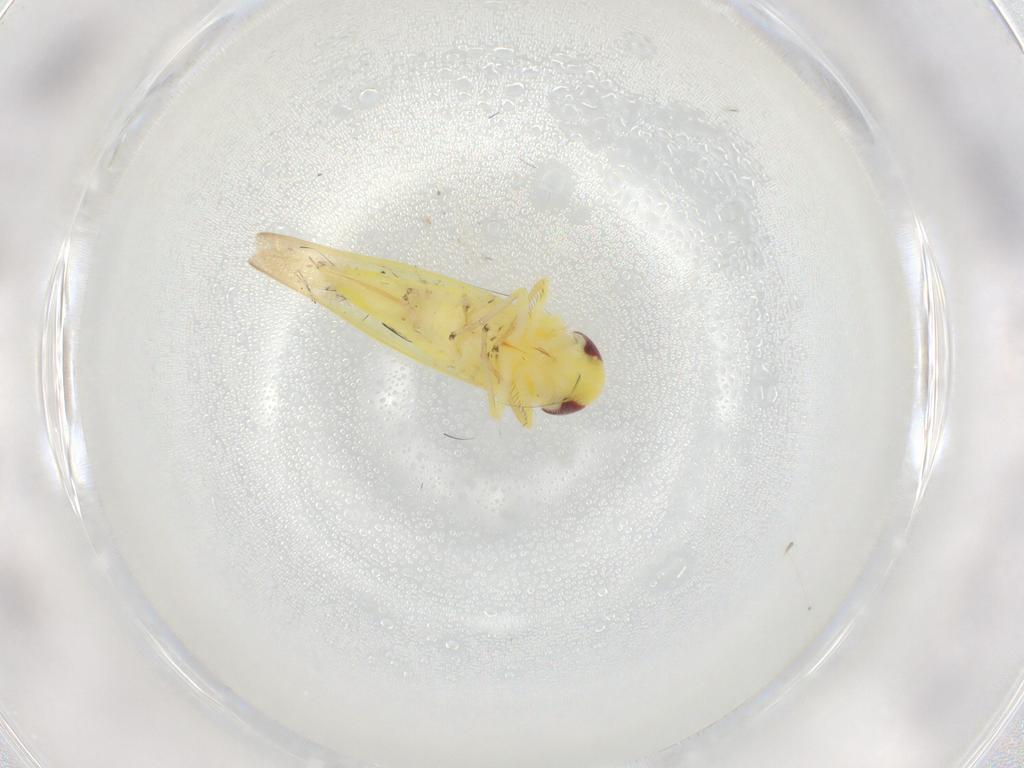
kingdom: Animalia
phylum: Arthropoda
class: Insecta
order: Hemiptera
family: Cicadellidae
